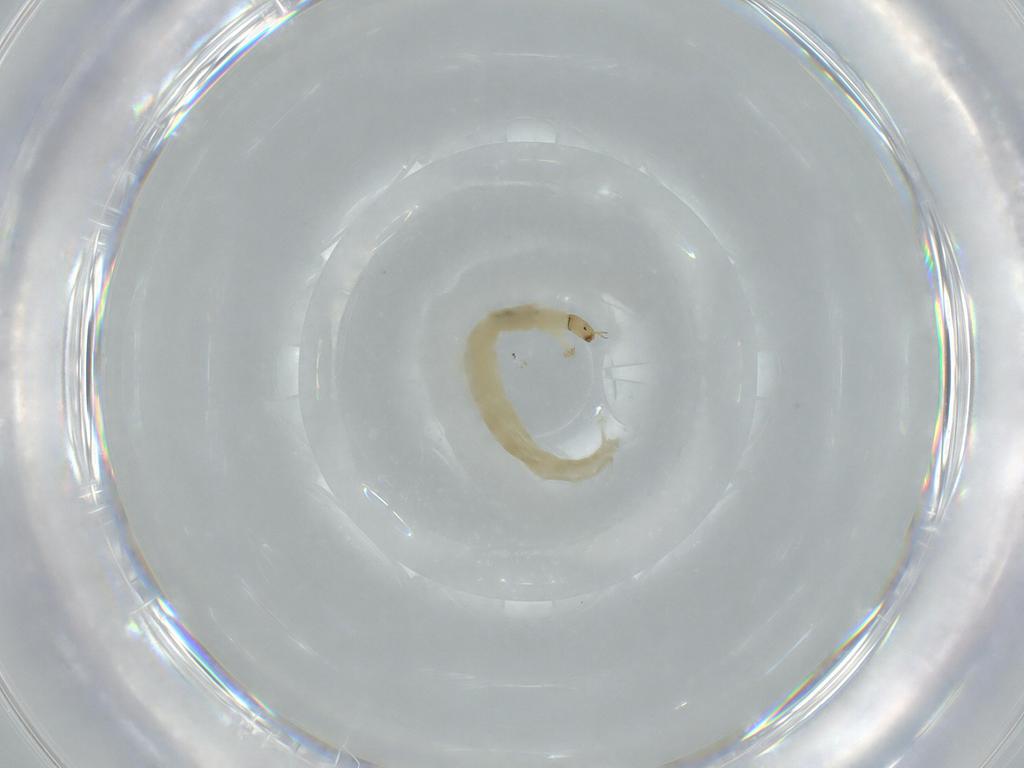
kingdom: Animalia
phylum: Arthropoda
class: Insecta
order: Diptera
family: Chironomidae
